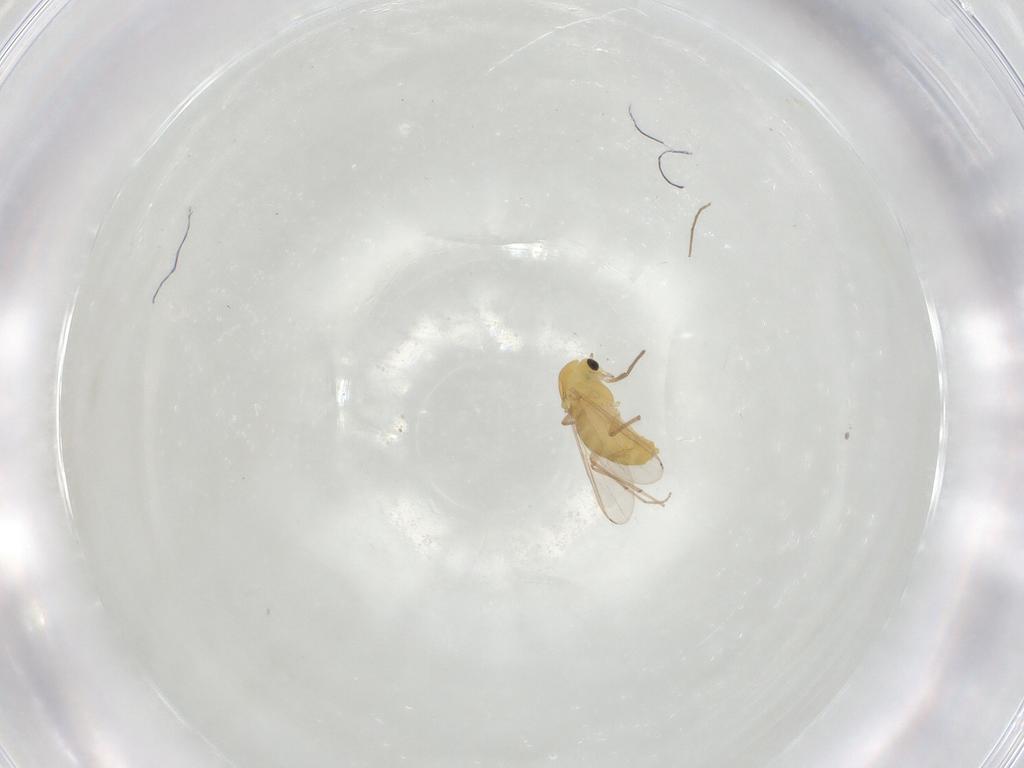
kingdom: Animalia
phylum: Arthropoda
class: Insecta
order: Diptera
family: Chironomidae
